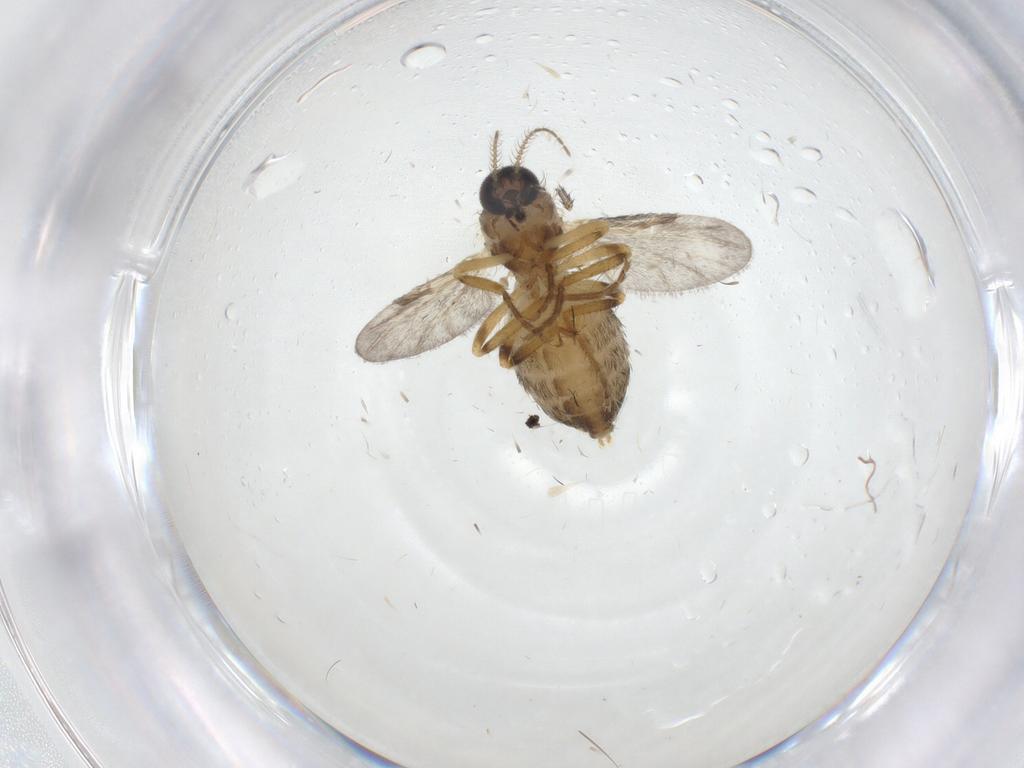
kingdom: Animalia
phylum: Arthropoda
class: Insecta
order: Diptera
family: Ceratopogonidae
